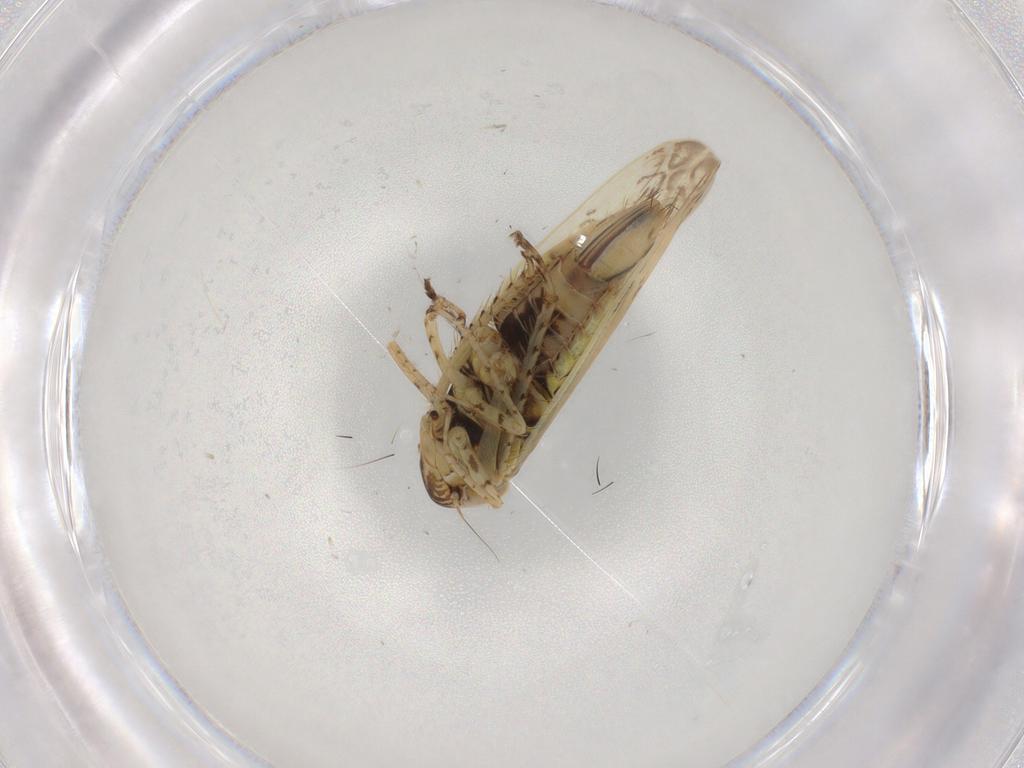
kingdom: Animalia
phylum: Arthropoda
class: Insecta
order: Hemiptera
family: Cicadellidae
